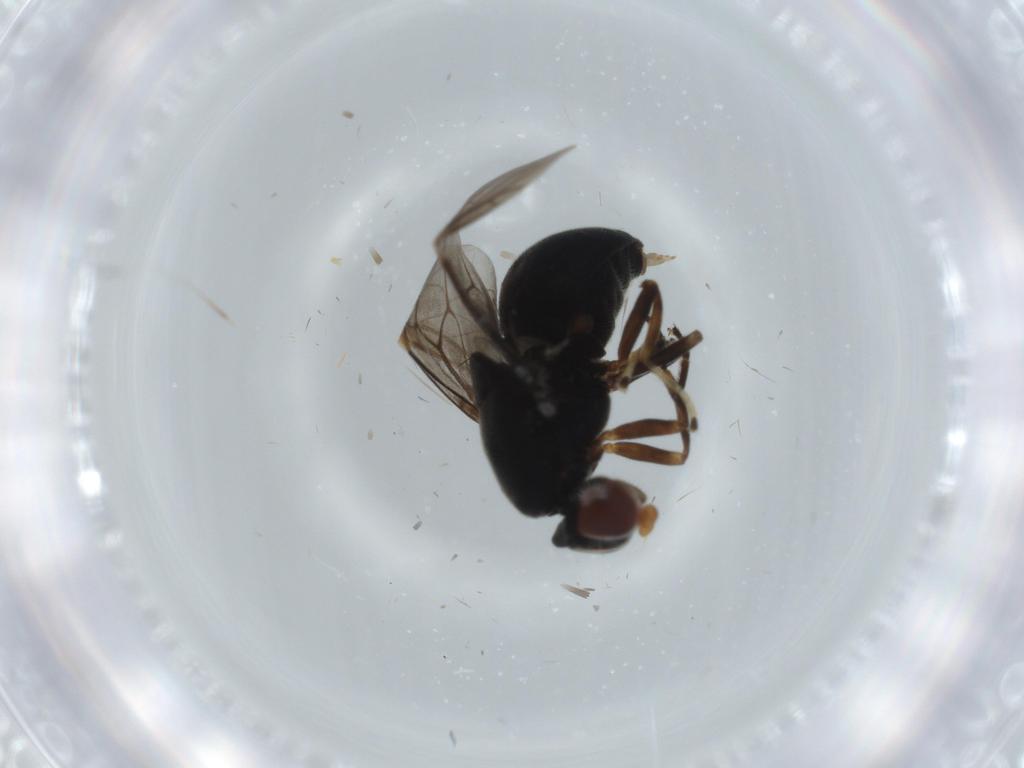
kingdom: Animalia
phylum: Arthropoda
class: Insecta
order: Diptera
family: Stratiomyidae
